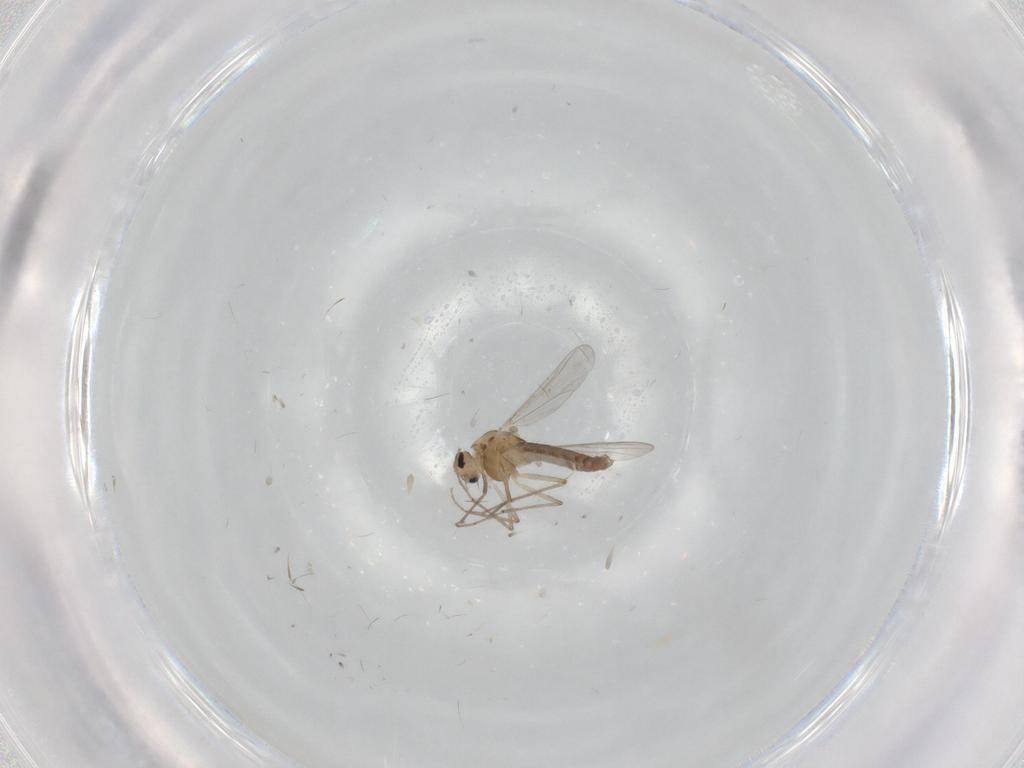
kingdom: Animalia
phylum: Arthropoda
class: Insecta
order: Diptera
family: Chironomidae
